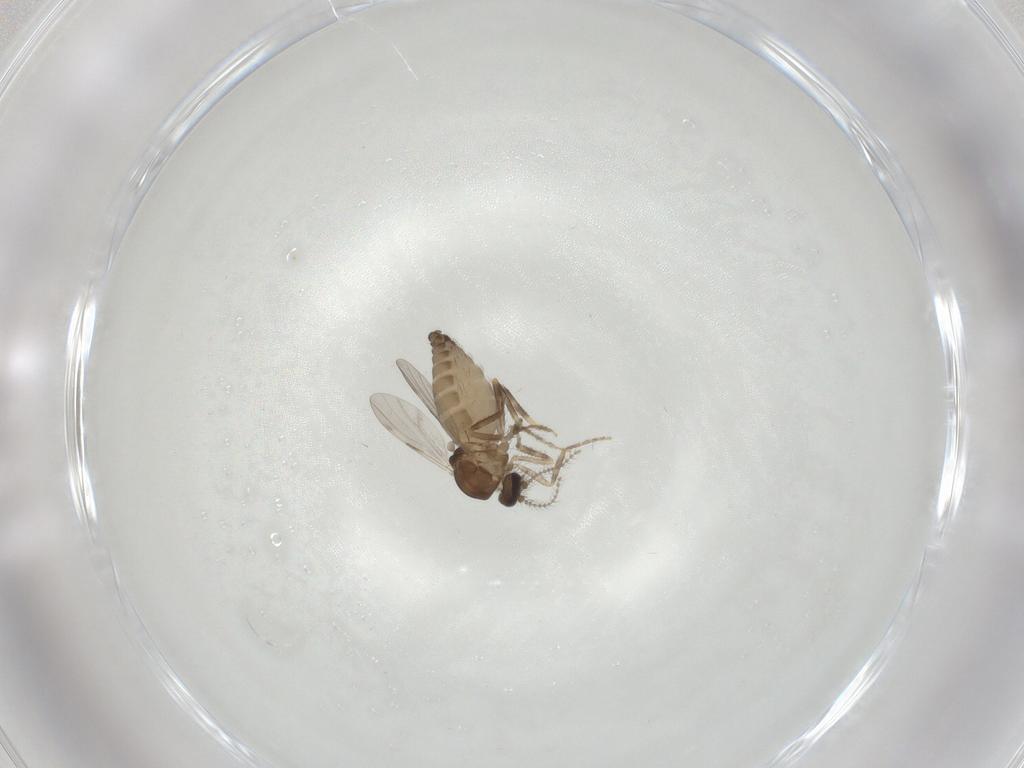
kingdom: Animalia
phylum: Arthropoda
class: Insecta
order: Diptera
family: Ceratopogonidae
